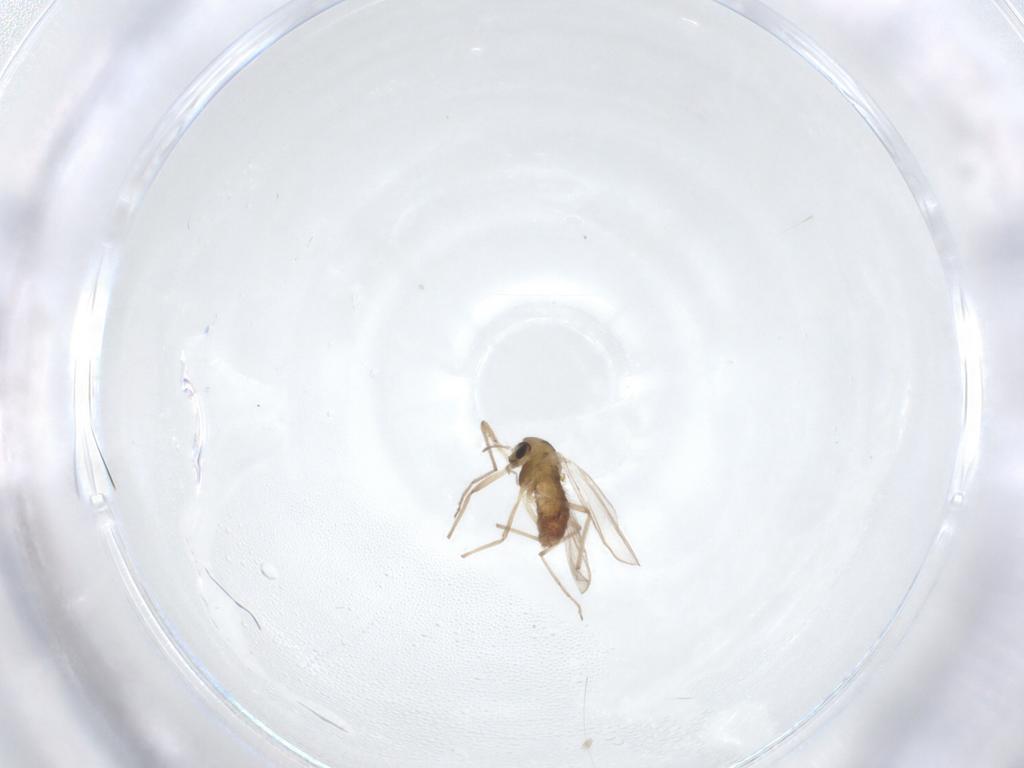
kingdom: Animalia
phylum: Arthropoda
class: Insecta
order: Diptera
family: Chironomidae
